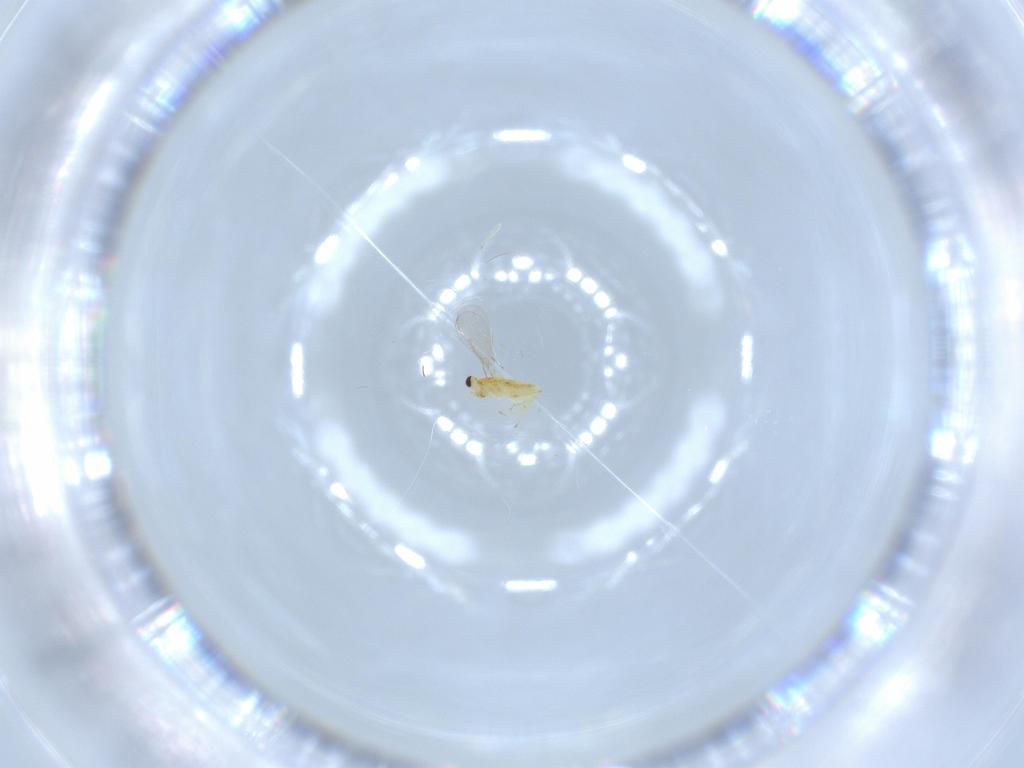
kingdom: Animalia
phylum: Arthropoda
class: Insecta
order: Hymenoptera
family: Aphelinidae
